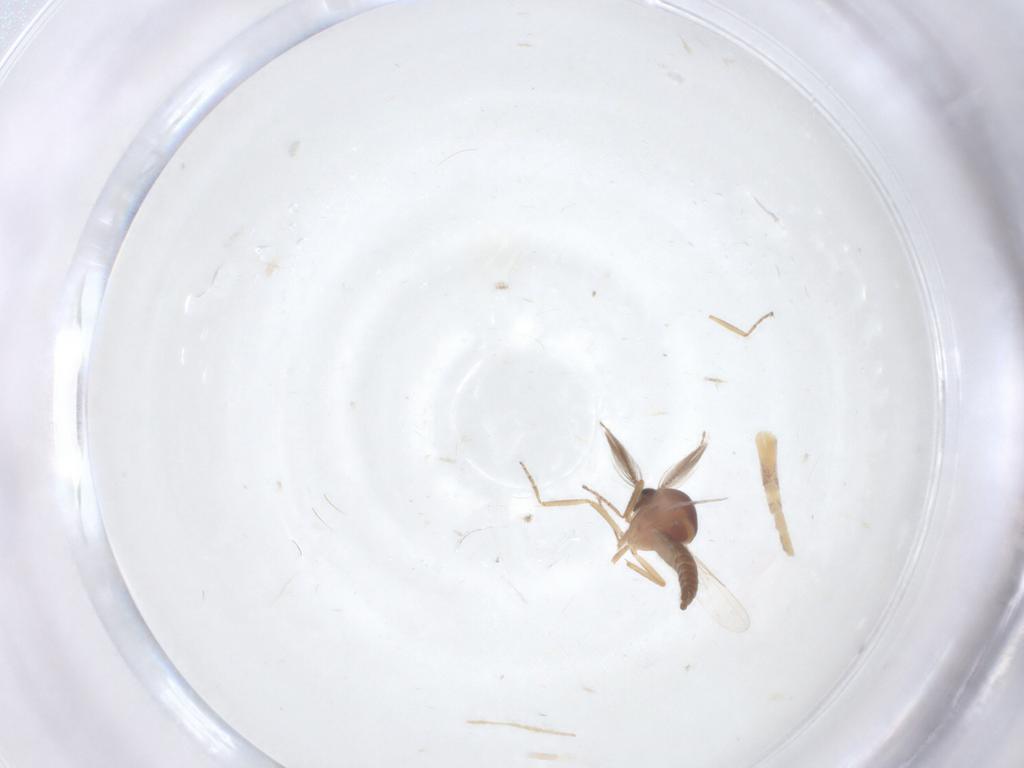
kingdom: Animalia
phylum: Arthropoda
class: Insecta
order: Diptera
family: Psychodidae
